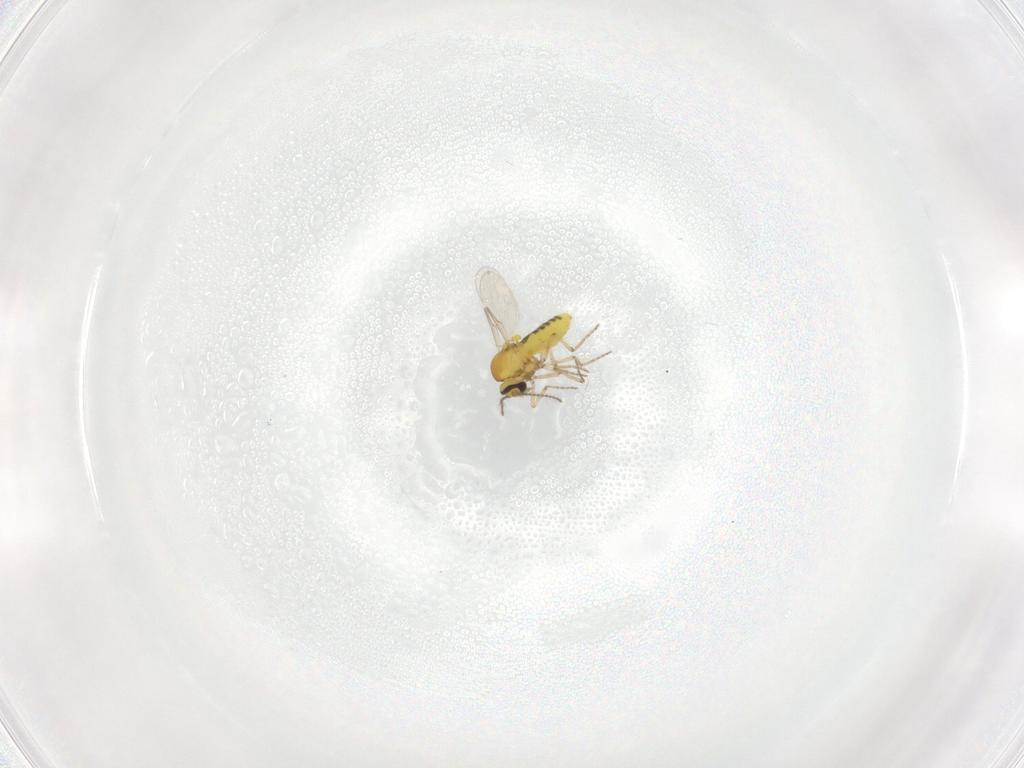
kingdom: Animalia
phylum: Arthropoda
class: Insecta
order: Diptera
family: Ceratopogonidae
